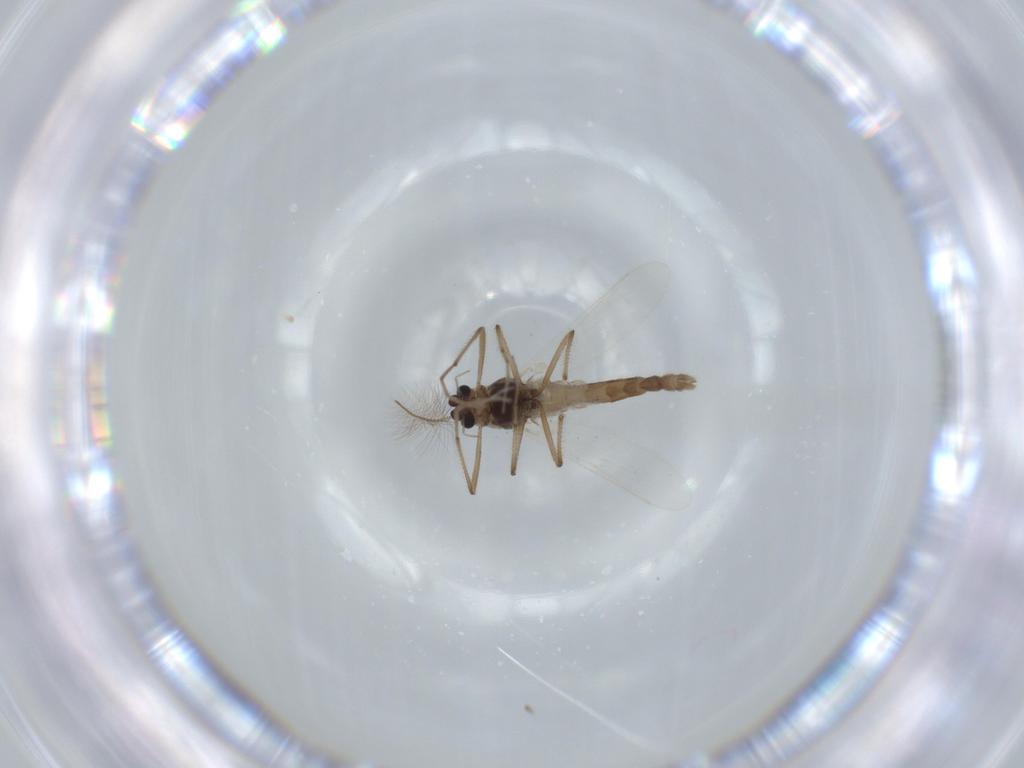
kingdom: Animalia
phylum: Arthropoda
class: Insecta
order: Diptera
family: Chironomidae
